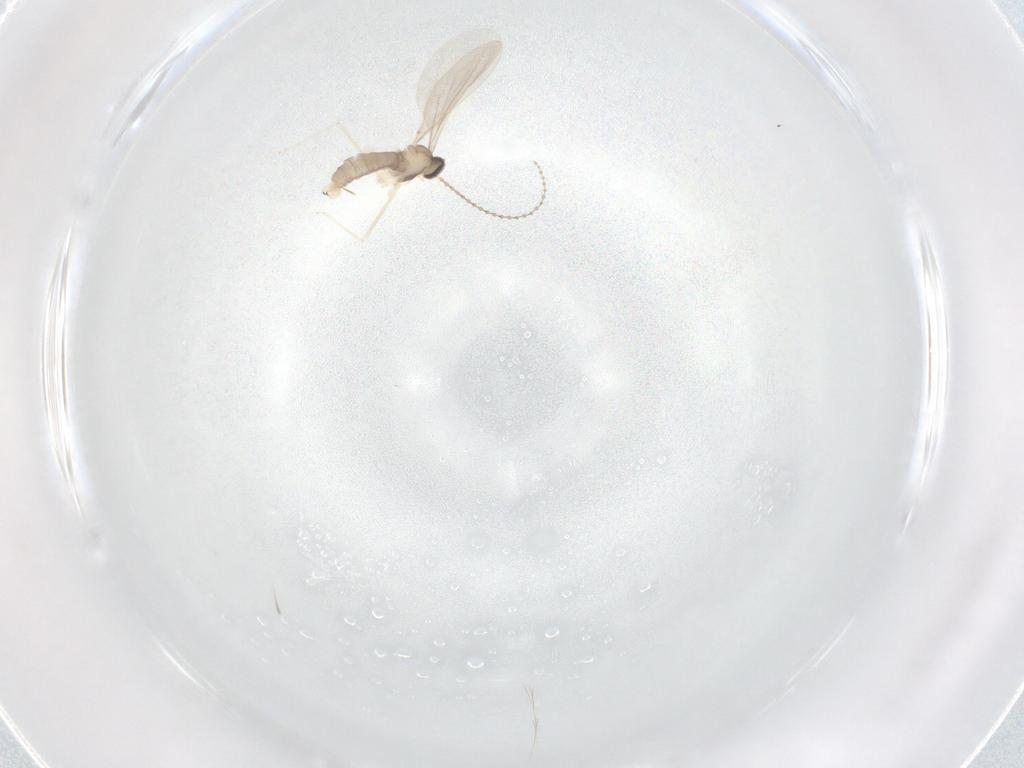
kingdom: Animalia
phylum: Arthropoda
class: Insecta
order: Diptera
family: Cecidomyiidae
